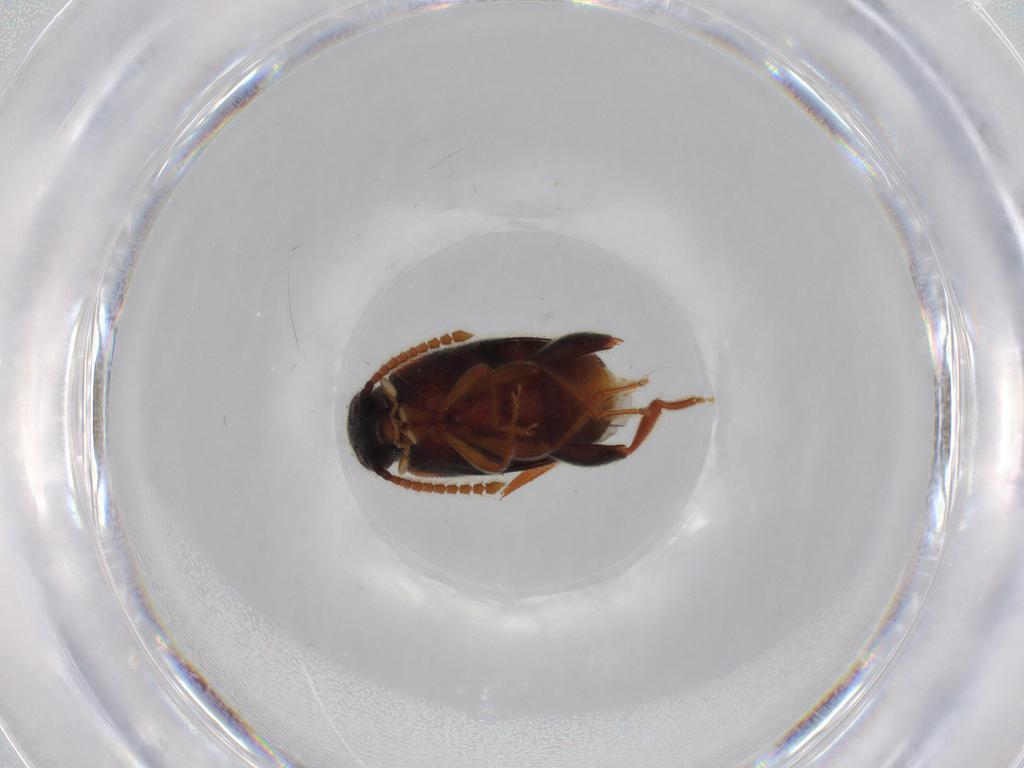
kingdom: Animalia
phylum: Arthropoda
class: Insecta
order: Coleoptera
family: Aderidae
